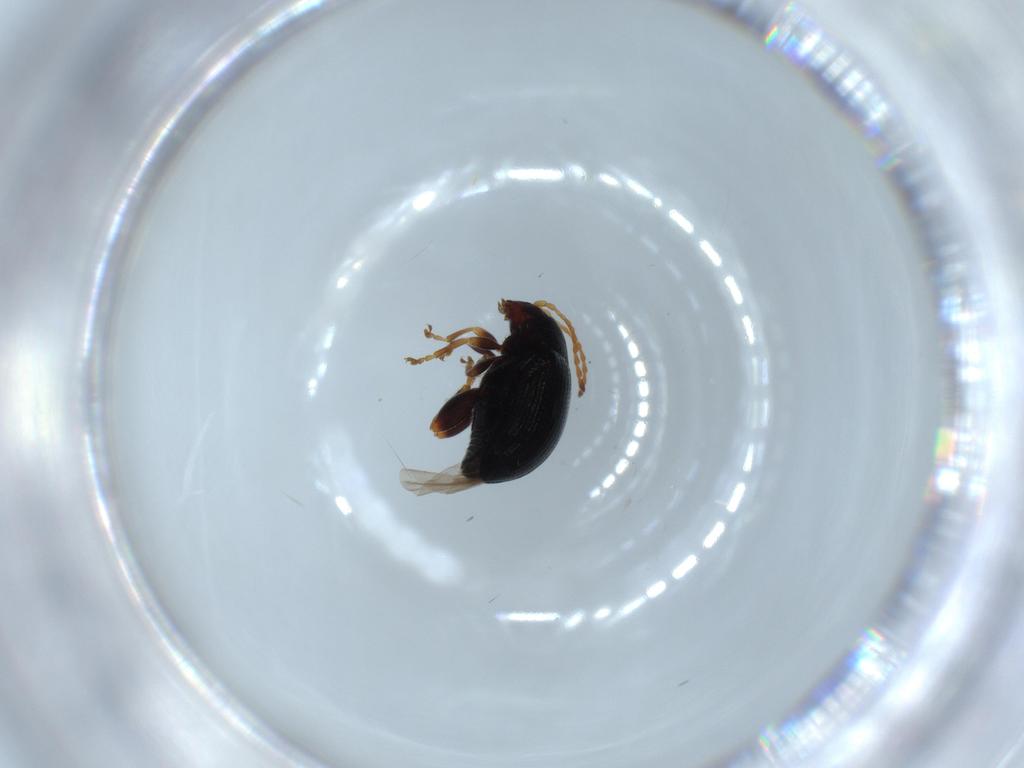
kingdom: Animalia
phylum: Arthropoda
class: Insecta
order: Coleoptera
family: Chrysomelidae
